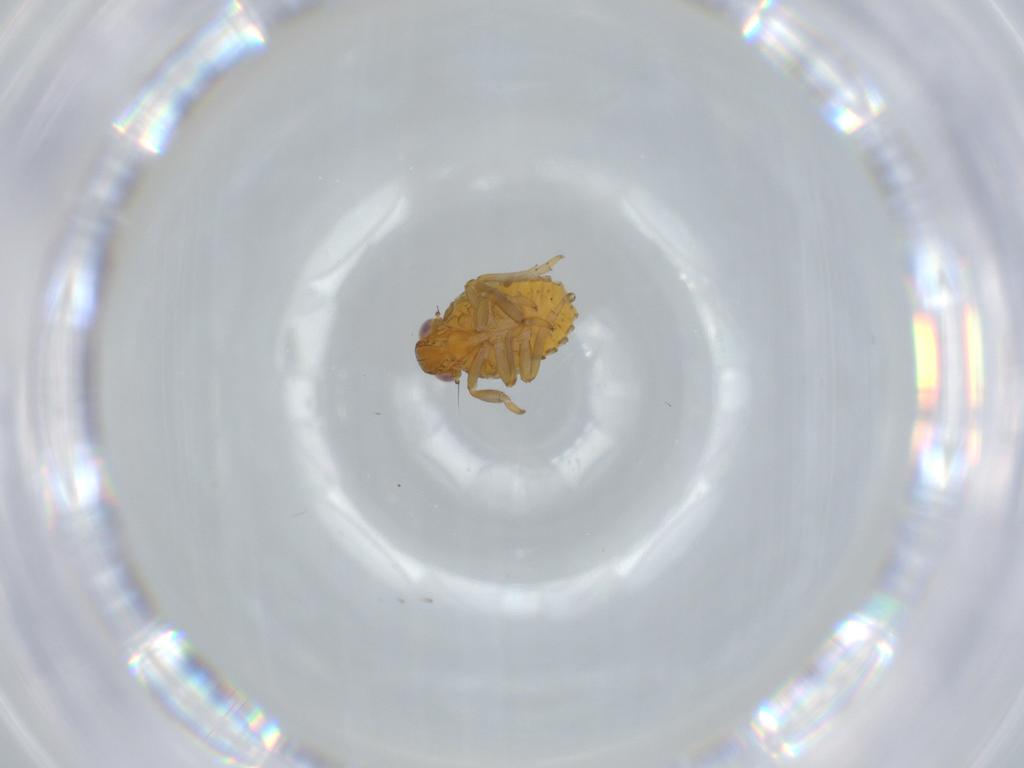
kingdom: Animalia
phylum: Arthropoda
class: Insecta
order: Hemiptera
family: Issidae
